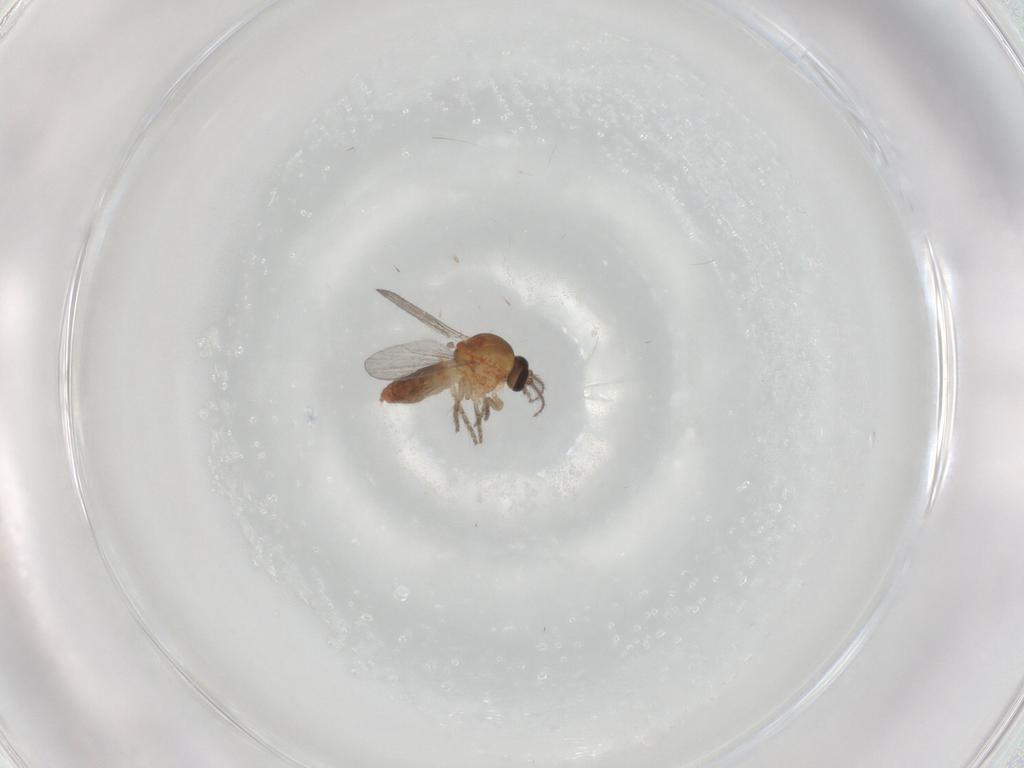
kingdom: Animalia
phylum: Arthropoda
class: Insecta
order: Diptera
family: Ceratopogonidae
